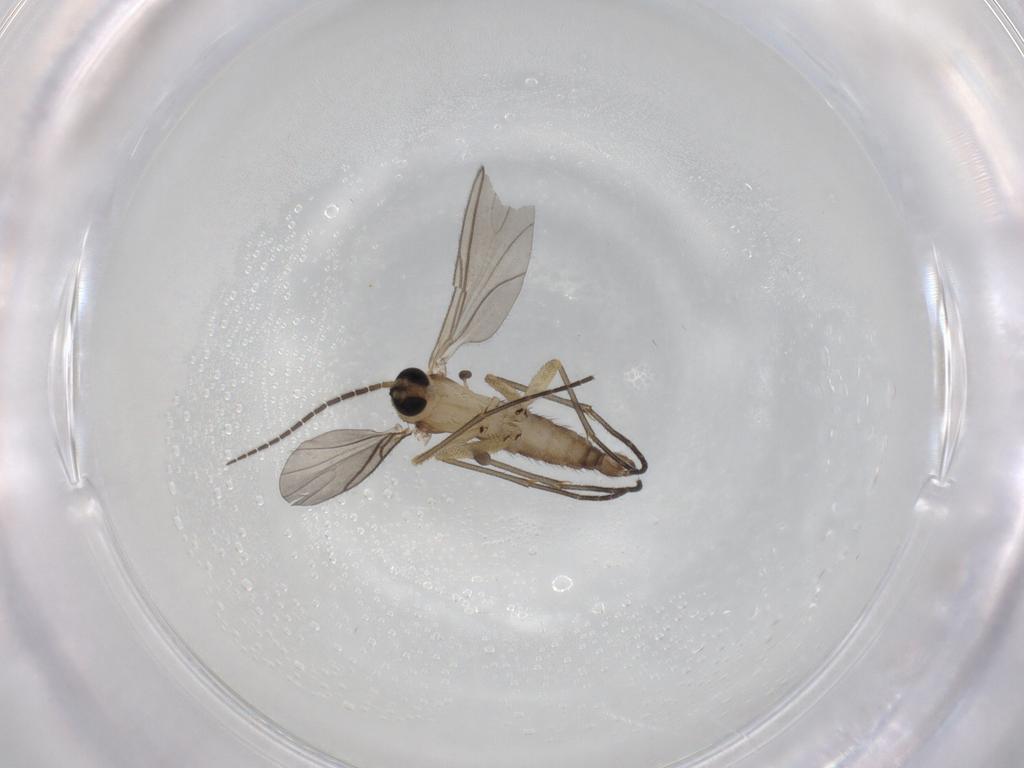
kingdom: Animalia
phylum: Arthropoda
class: Insecta
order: Diptera
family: Sciaridae
